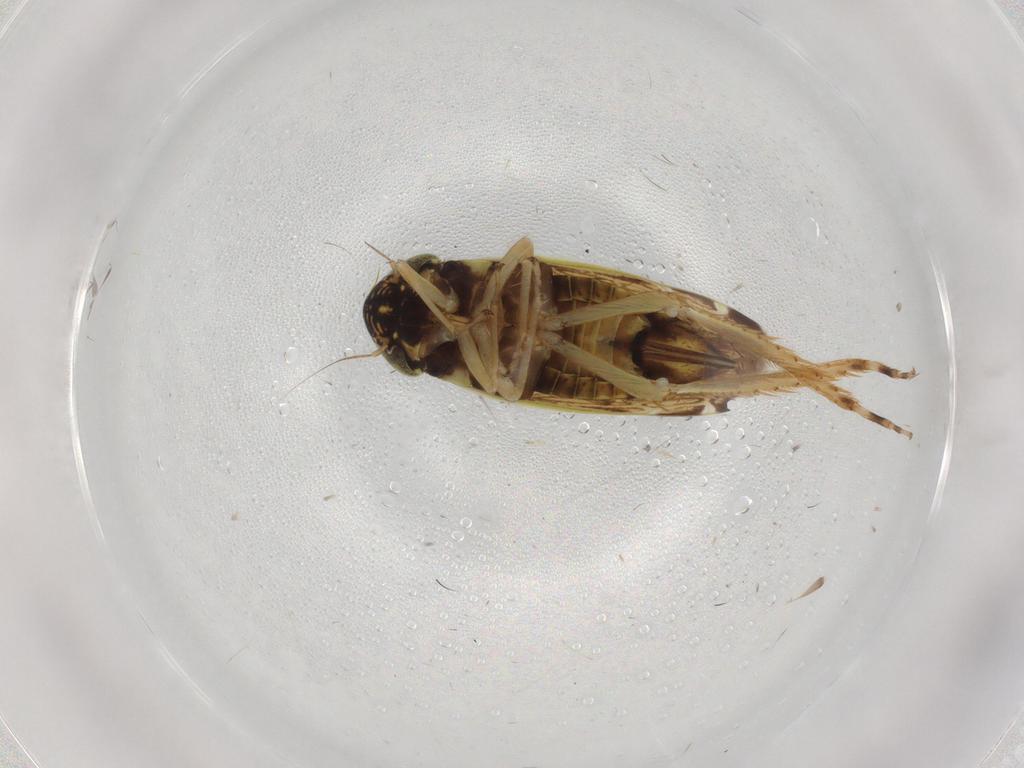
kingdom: Animalia
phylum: Arthropoda
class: Insecta
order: Hemiptera
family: Cicadellidae
